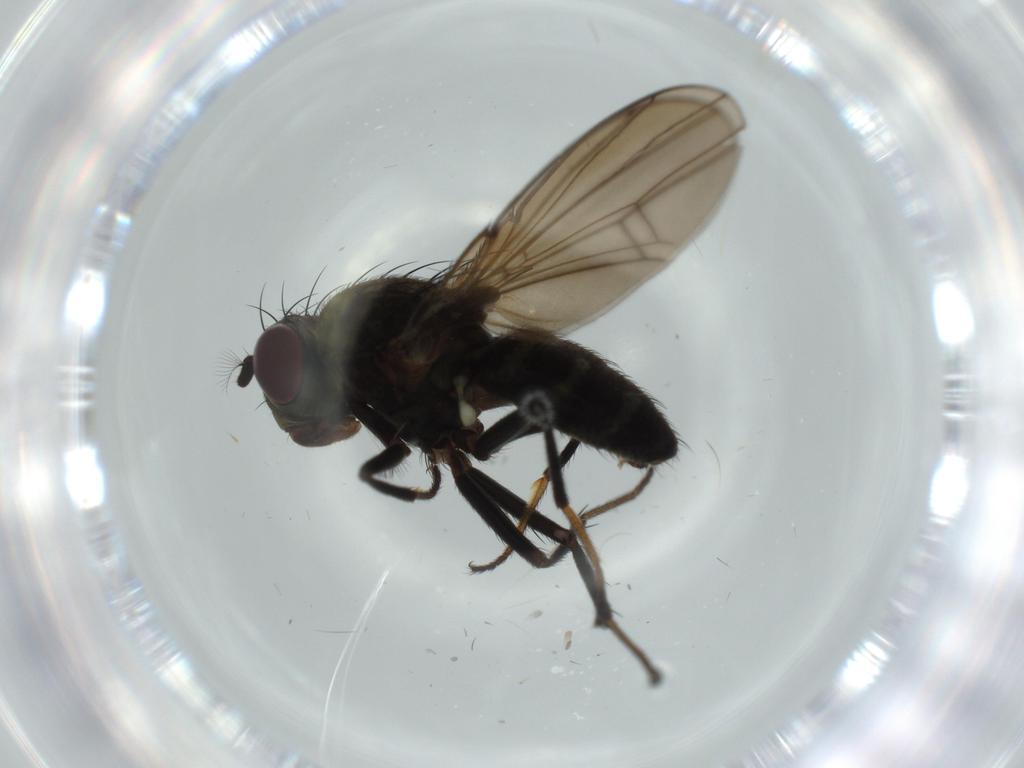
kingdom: Animalia
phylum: Arthropoda
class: Insecta
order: Diptera
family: Ephydridae
